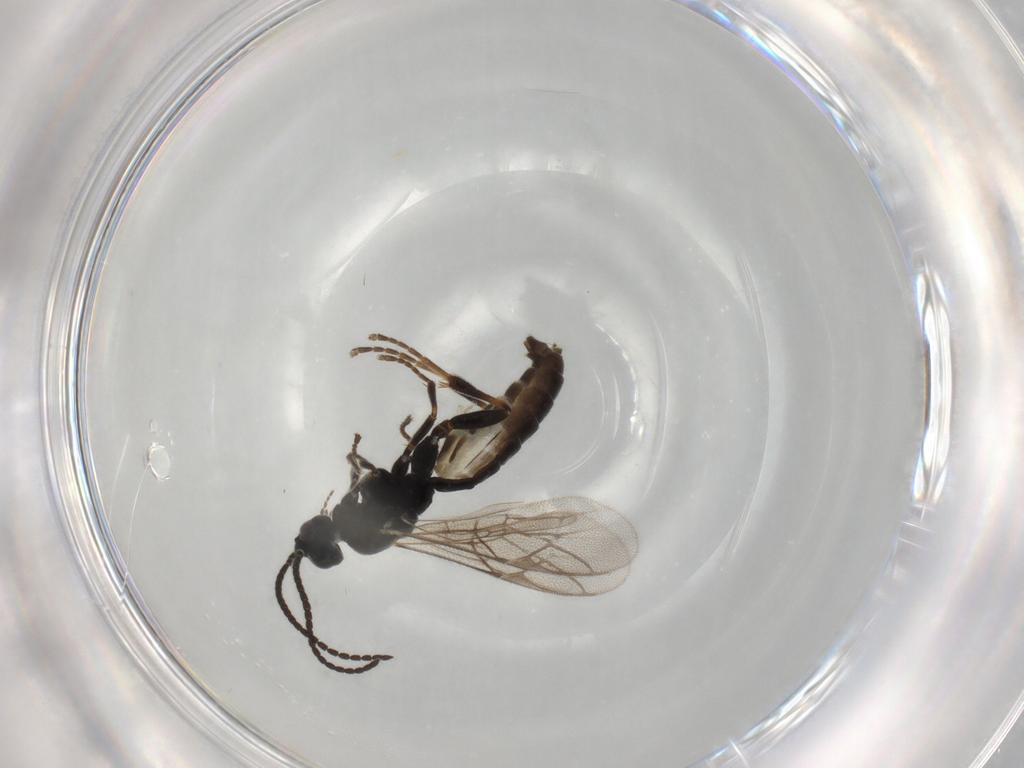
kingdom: Animalia
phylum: Arthropoda
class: Insecta
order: Hymenoptera
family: Ichneumonidae
